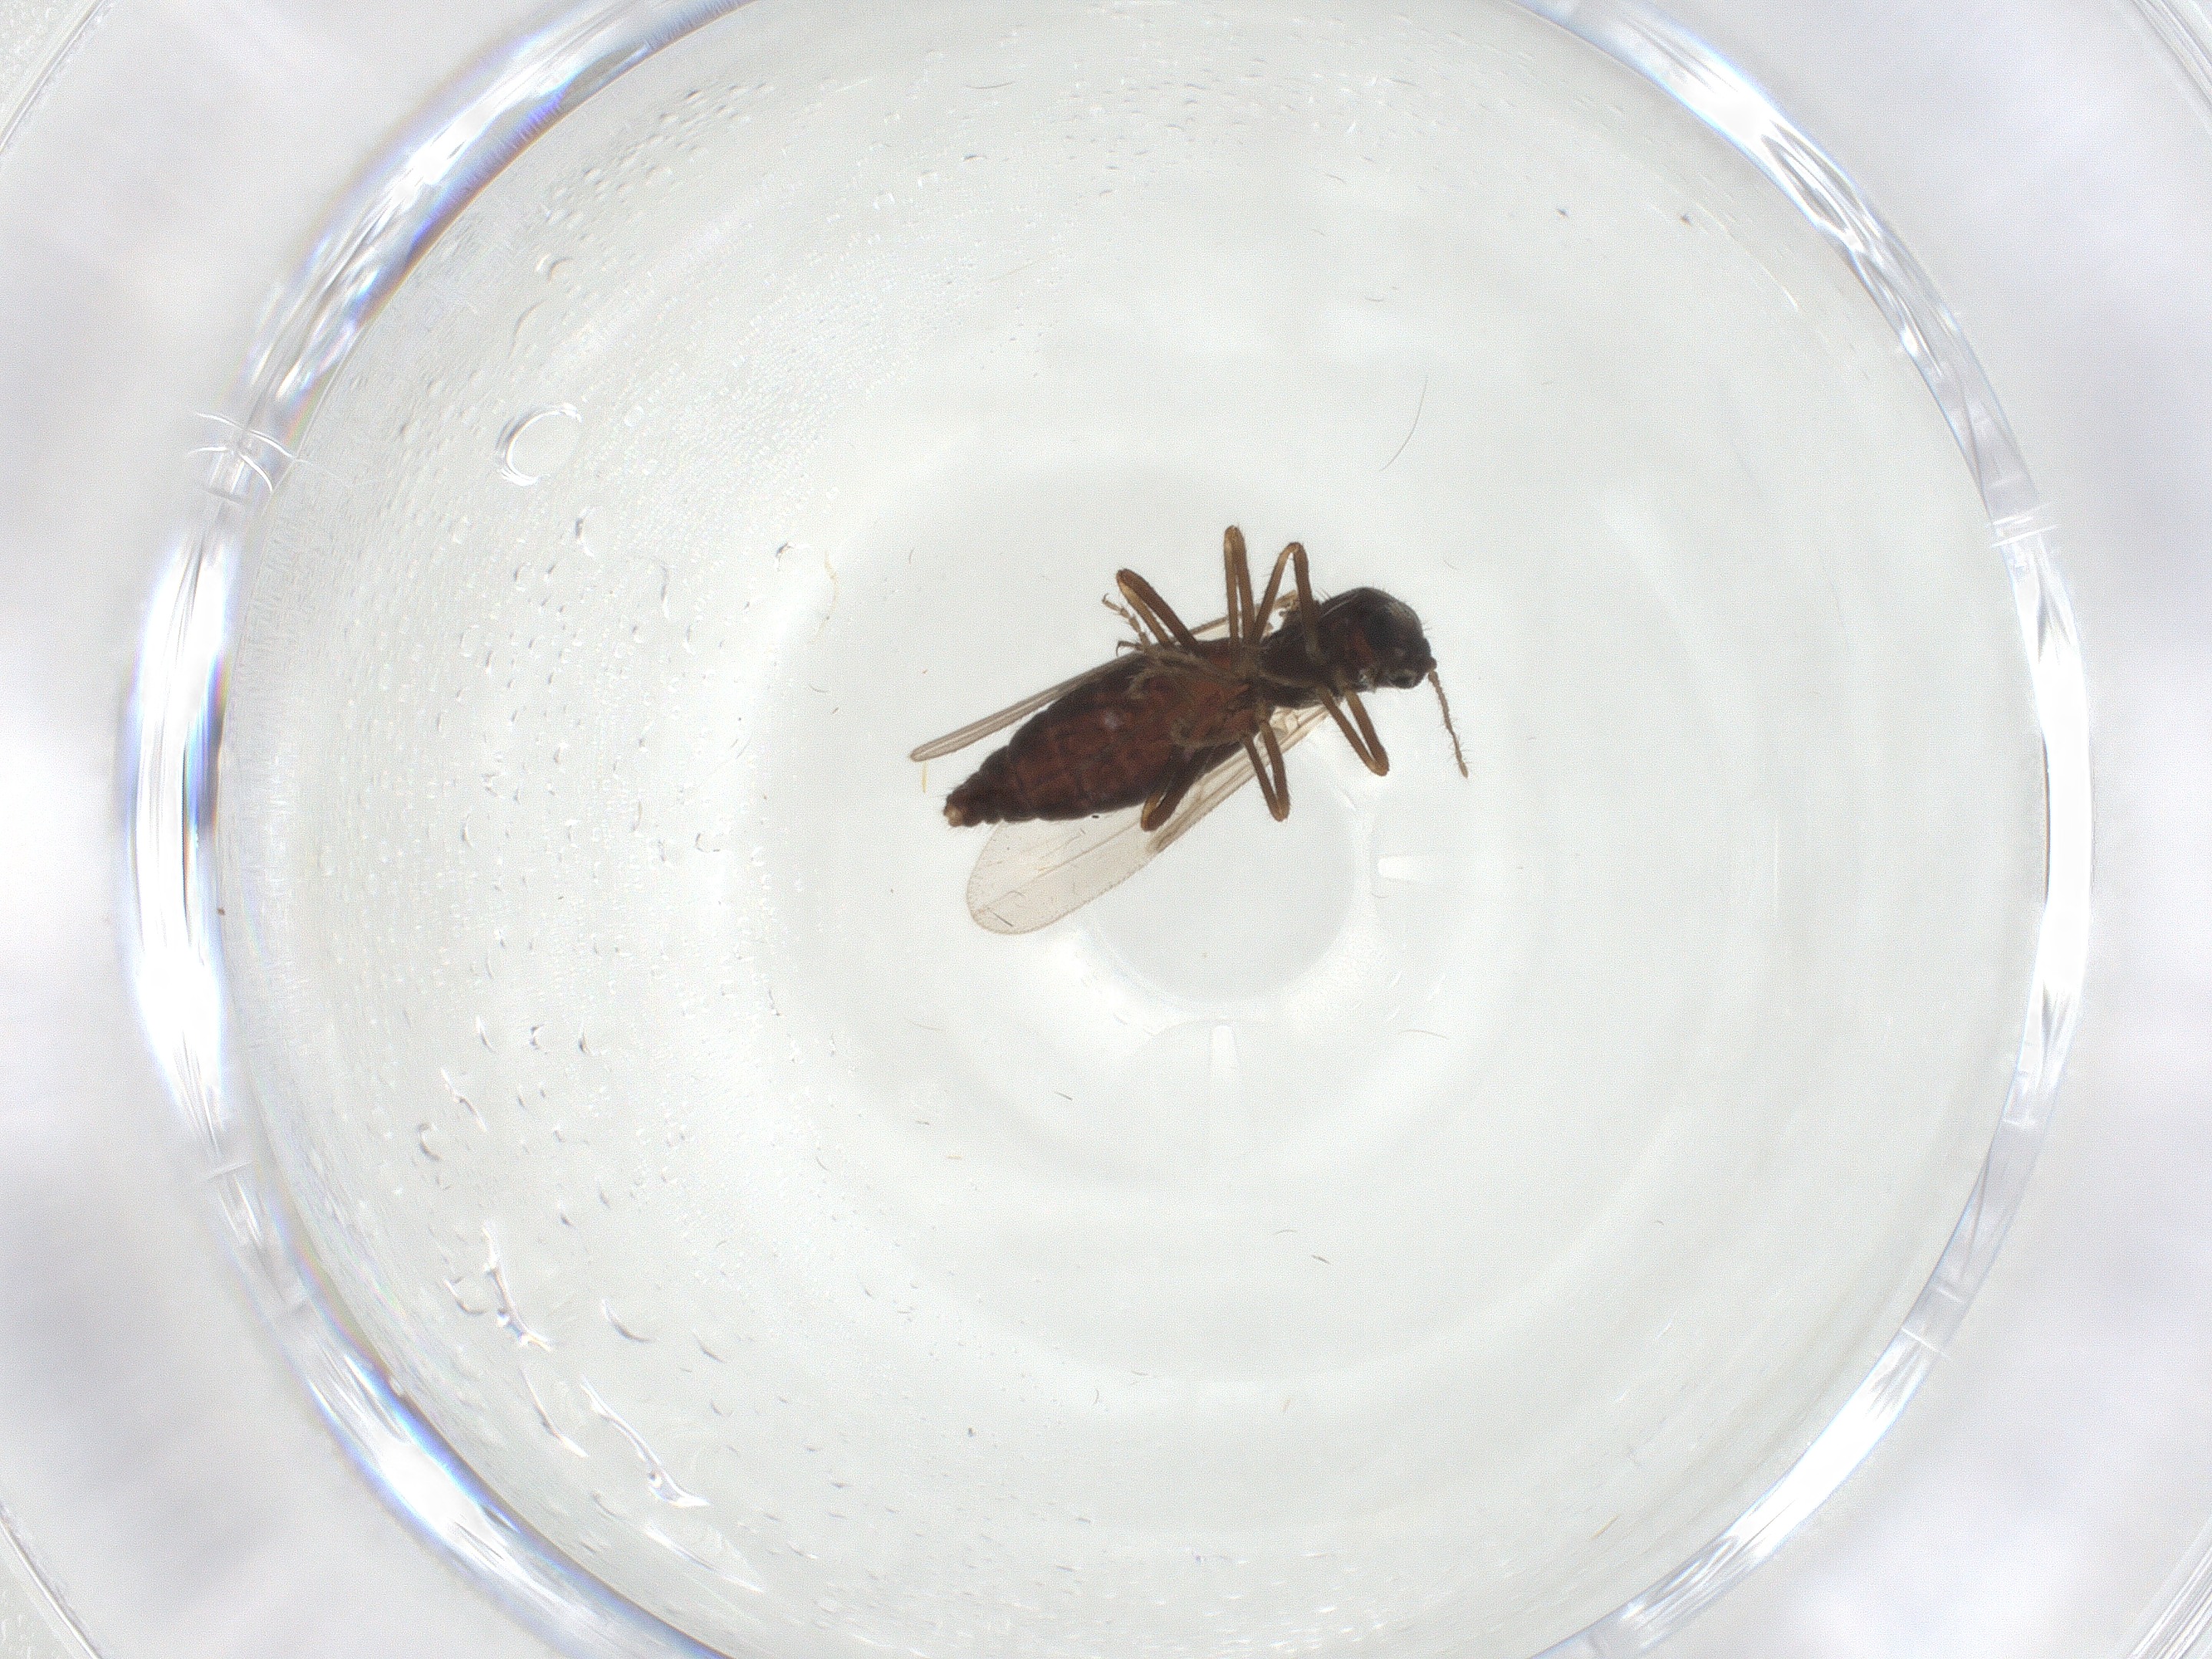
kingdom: Animalia
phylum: Arthropoda
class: Insecta
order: Diptera
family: Ceratopogonidae
